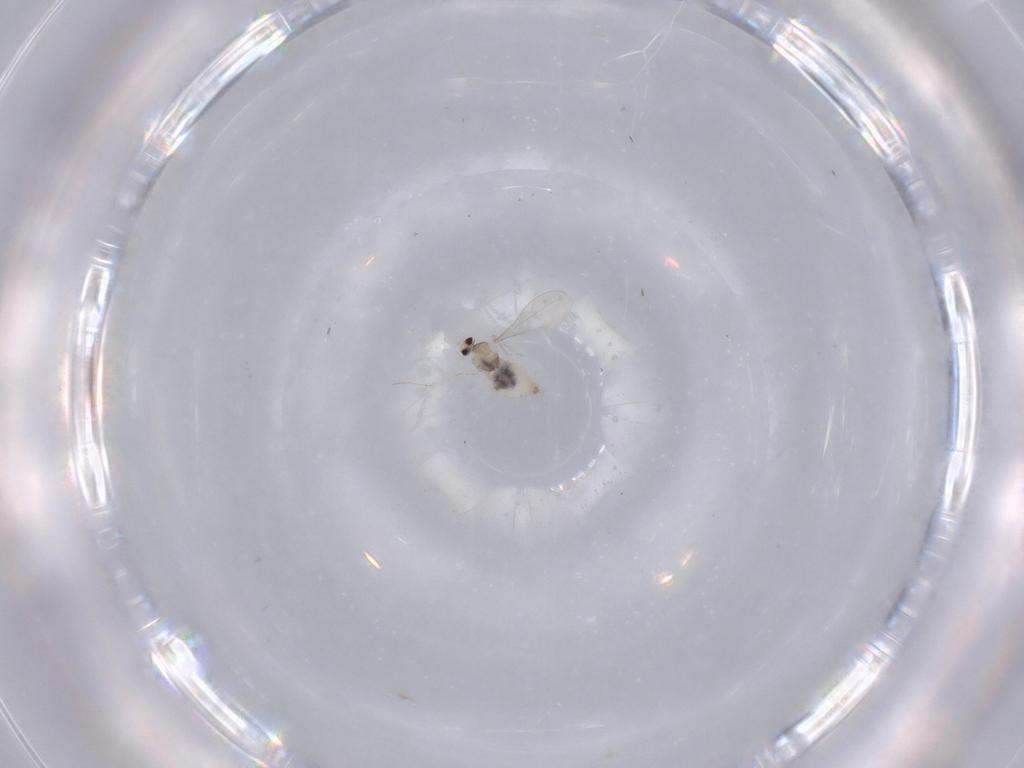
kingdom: Animalia
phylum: Arthropoda
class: Insecta
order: Diptera
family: Cecidomyiidae
